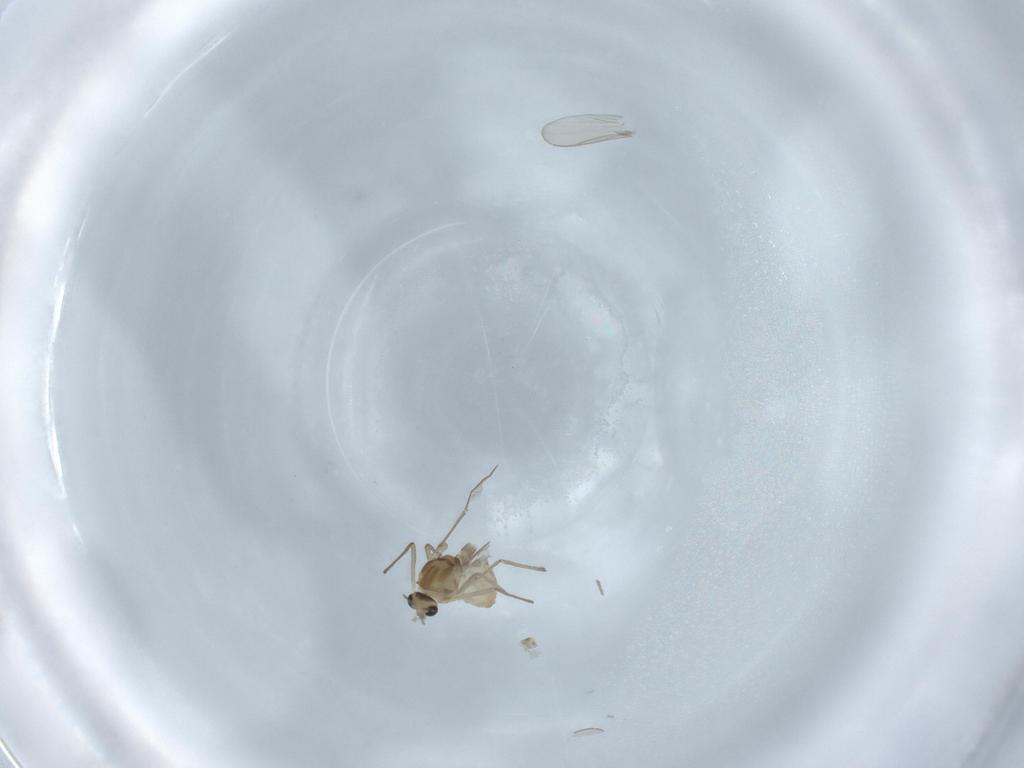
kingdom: Animalia
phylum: Arthropoda
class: Insecta
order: Diptera
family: Chironomidae
